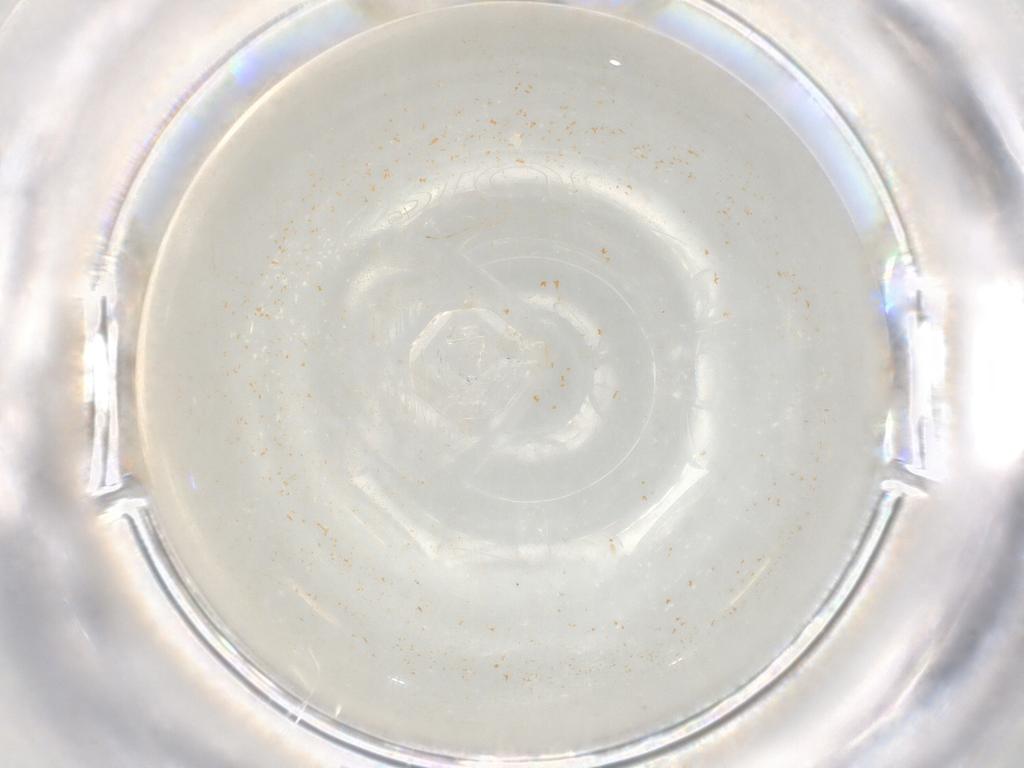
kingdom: Animalia
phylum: Arthropoda
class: Insecta
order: Diptera
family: Cecidomyiidae
